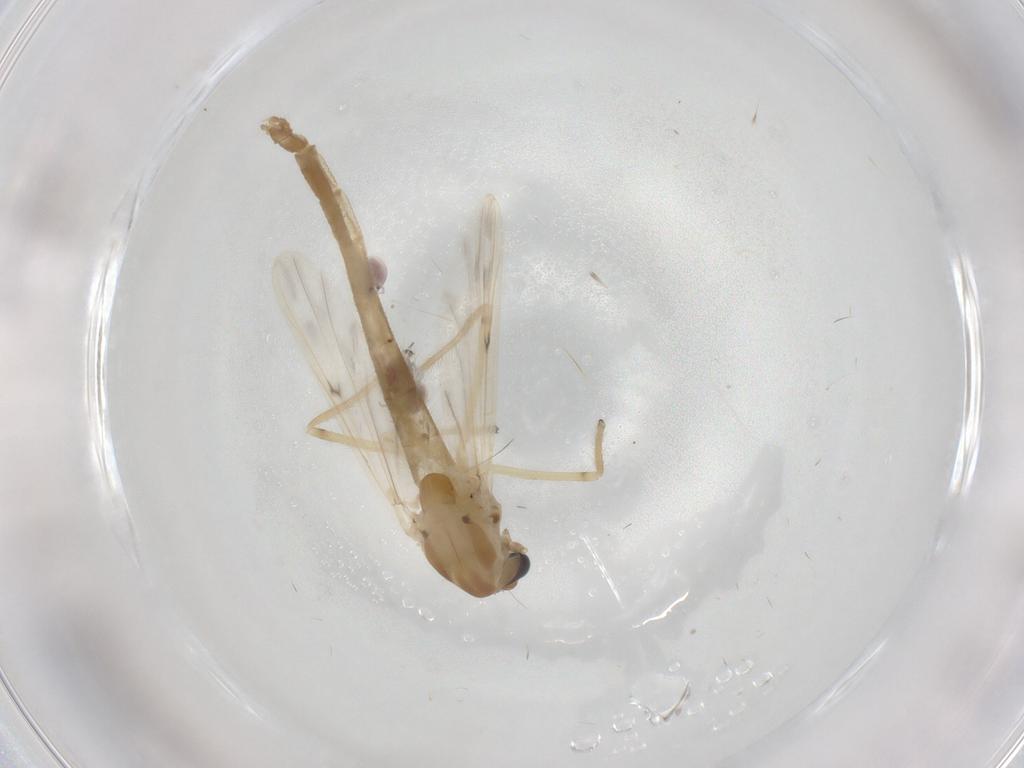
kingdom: Animalia
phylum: Arthropoda
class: Insecta
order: Diptera
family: Chironomidae
